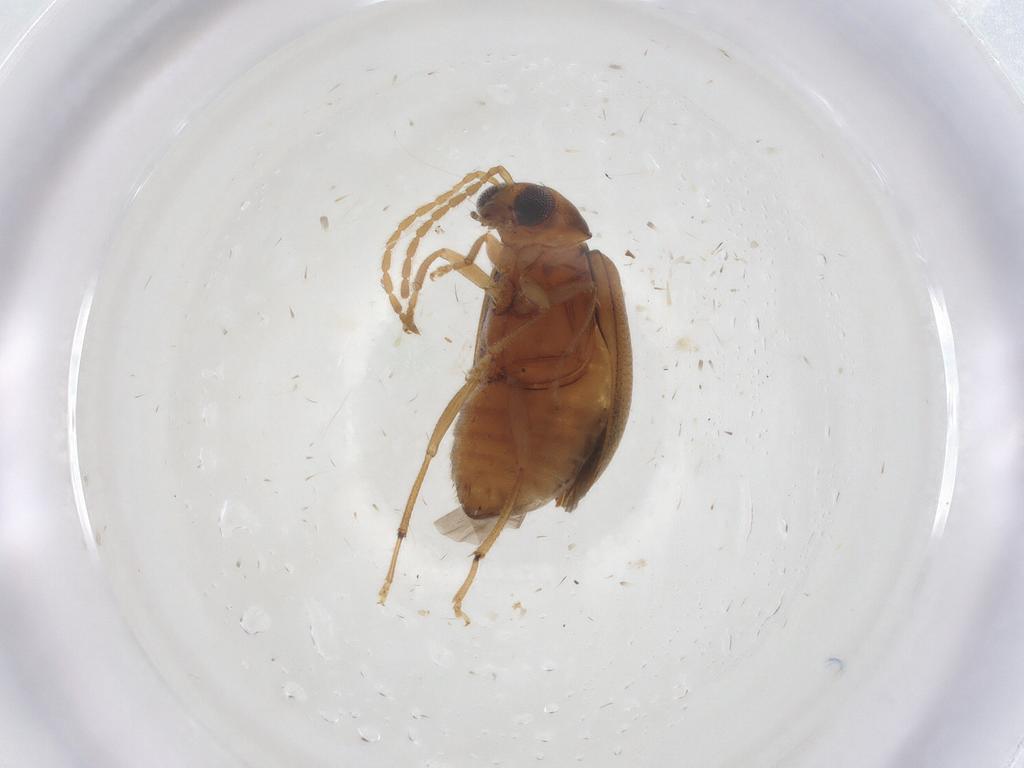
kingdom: Animalia
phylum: Arthropoda
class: Insecta
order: Coleoptera
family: Chrysomelidae
